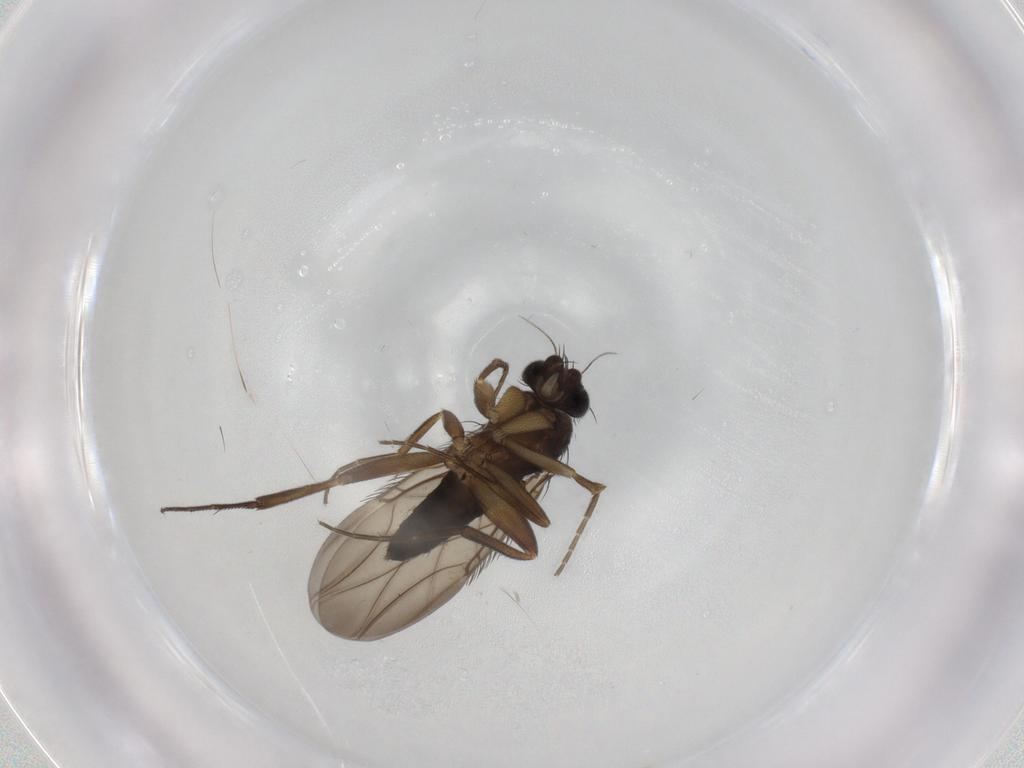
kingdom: Animalia
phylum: Arthropoda
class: Insecta
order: Diptera
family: Phoridae
